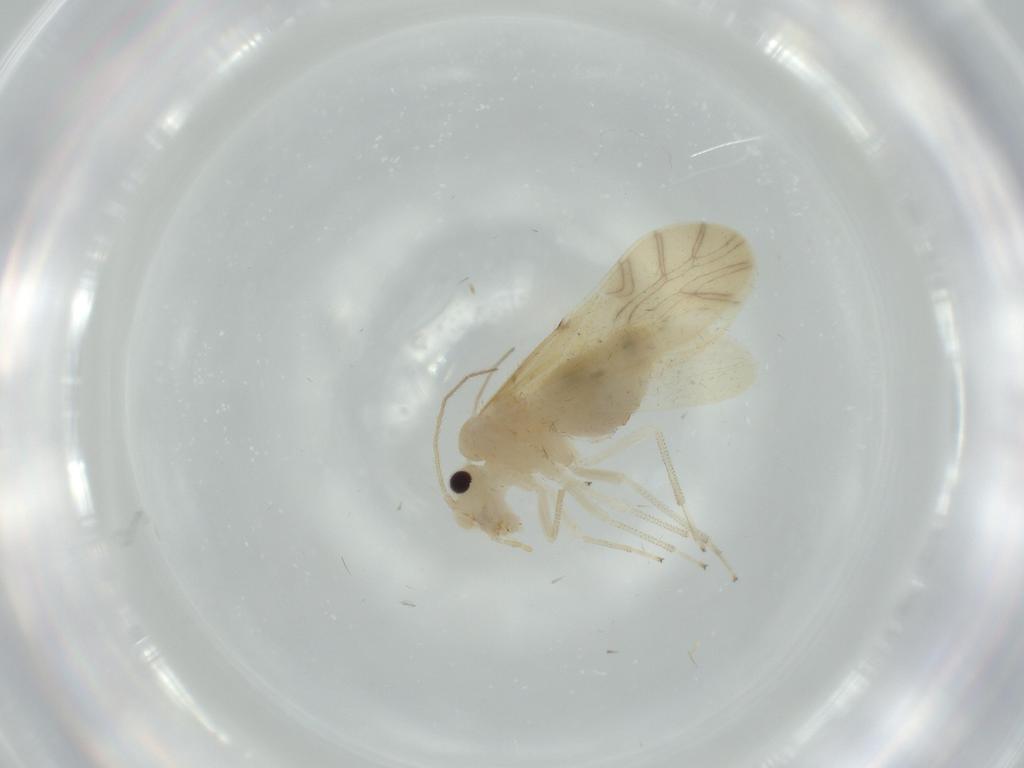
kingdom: Animalia
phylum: Arthropoda
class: Insecta
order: Psocodea
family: Caeciliusidae
